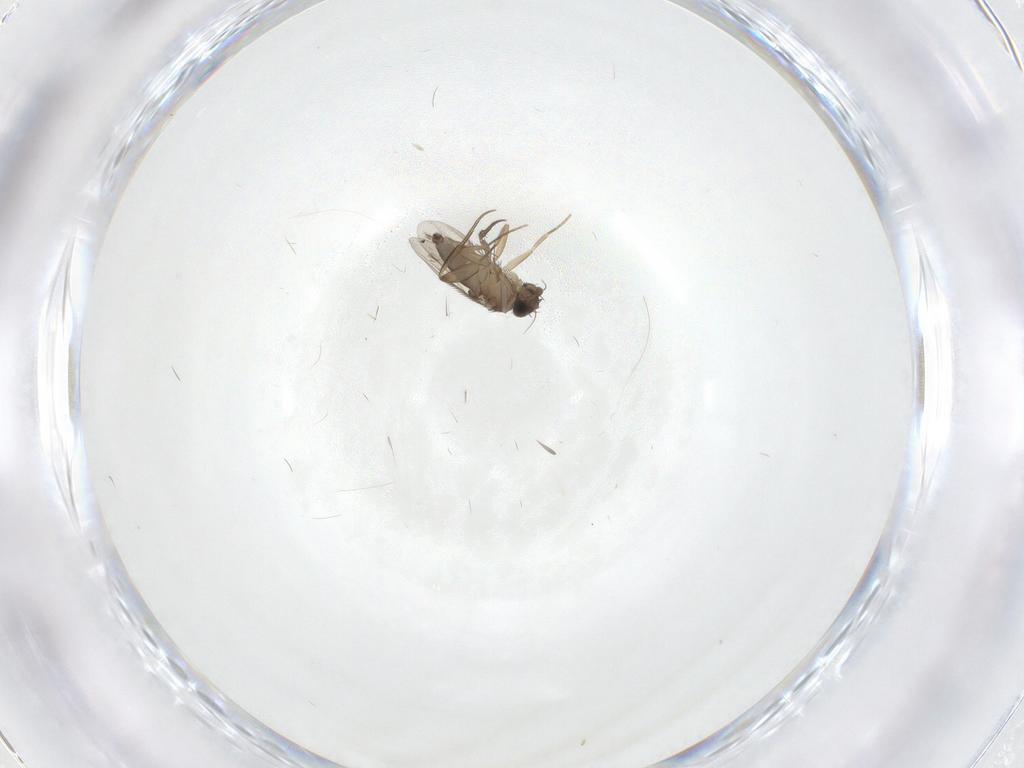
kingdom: Animalia
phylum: Arthropoda
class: Insecta
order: Diptera
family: Phoridae
